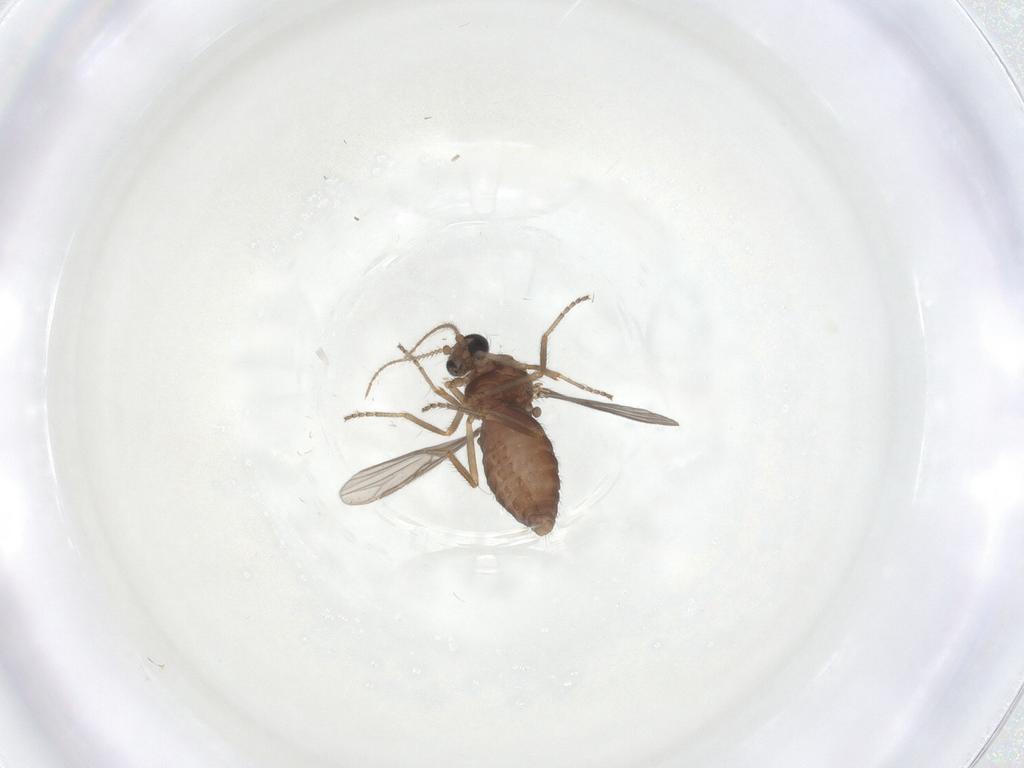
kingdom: Animalia
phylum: Arthropoda
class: Insecta
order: Diptera
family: Ceratopogonidae
